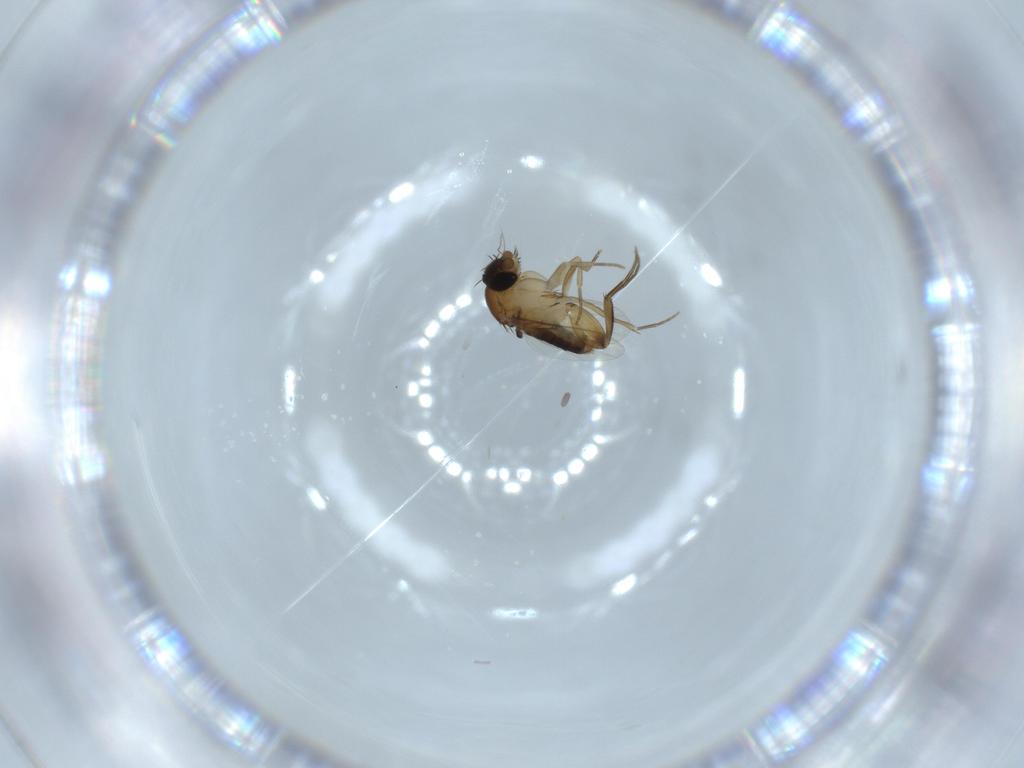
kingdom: Animalia
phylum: Arthropoda
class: Insecta
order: Diptera
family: Phoridae
